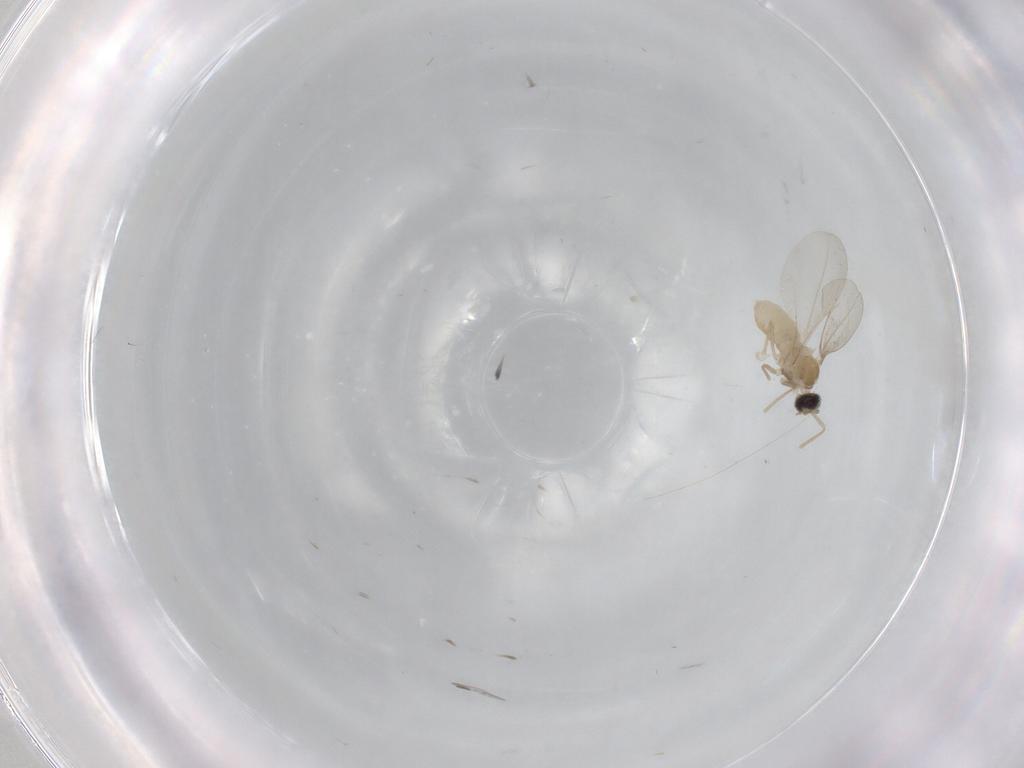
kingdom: Animalia
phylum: Arthropoda
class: Insecta
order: Diptera
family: Cecidomyiidae
